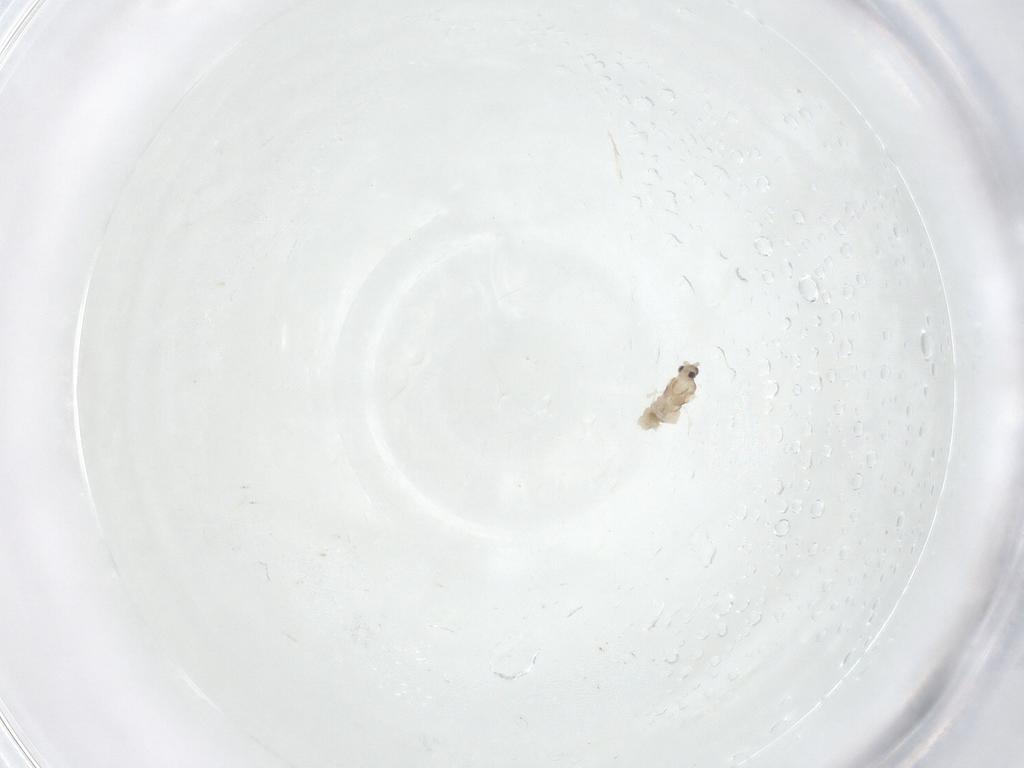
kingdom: Animalia
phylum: Arthropoda
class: Insecta
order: Diptera
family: Cecidomyiidae
